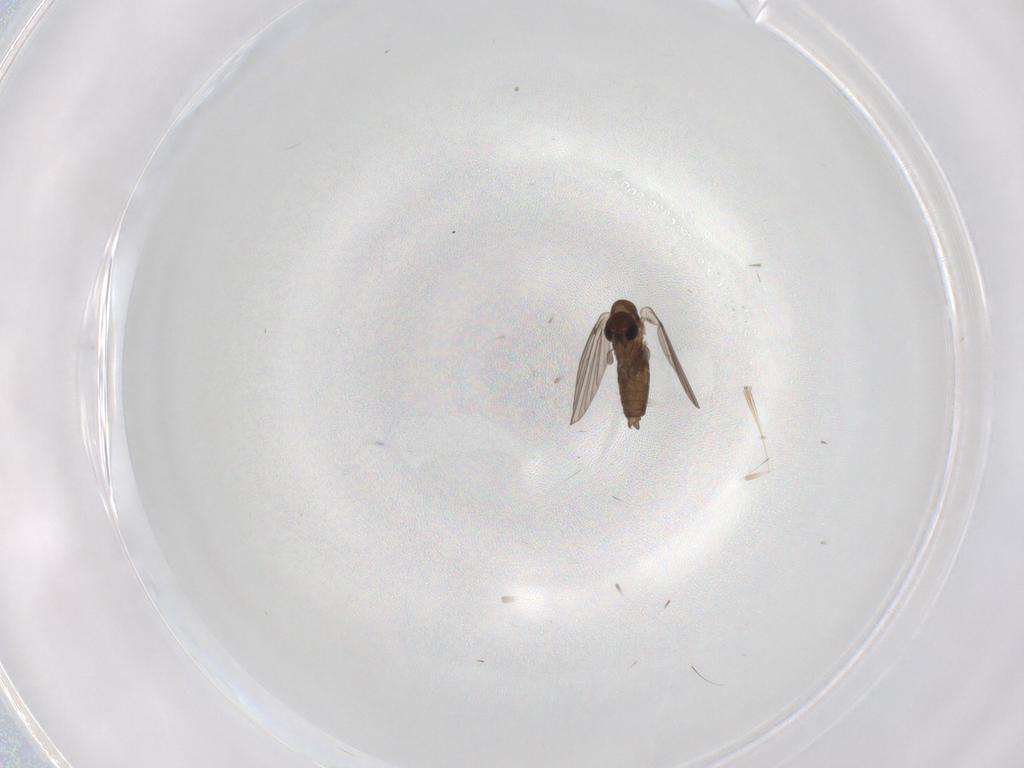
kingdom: Animalia
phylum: Arthropoda
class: Insecta
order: Diptera
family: Psychodidae
